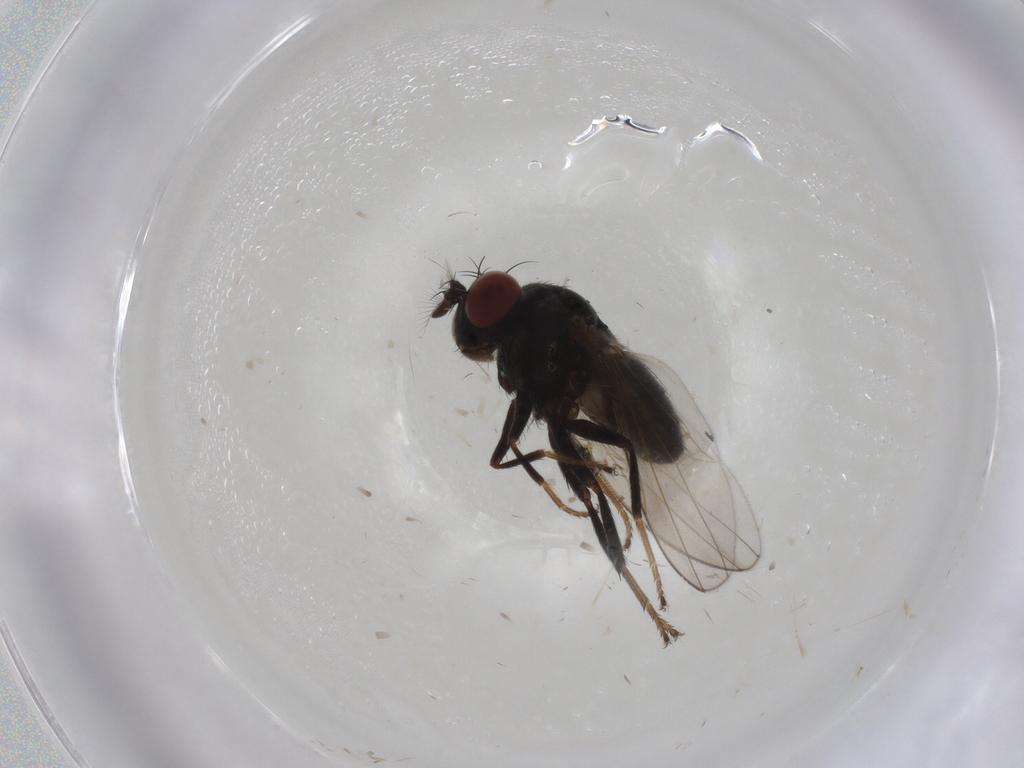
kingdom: Animalia
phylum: Arthropoda
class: Insecta
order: Diptera
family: Ephydridae
